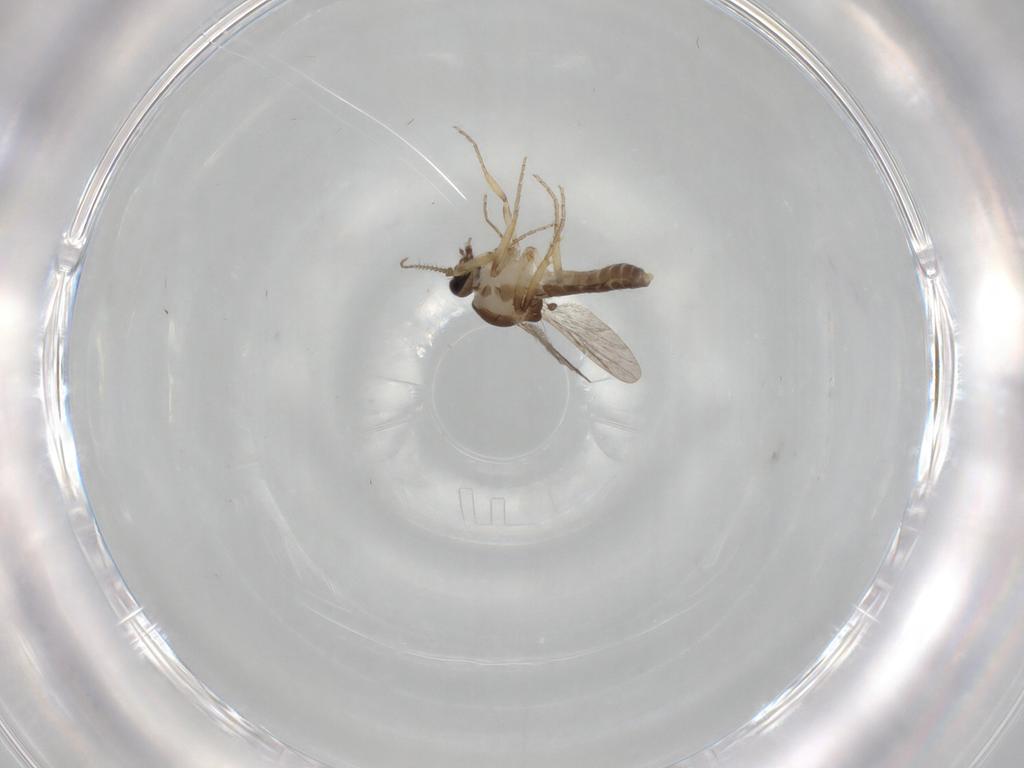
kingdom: Animalia
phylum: Arthropoda
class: Insecta
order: Diptera
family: Ceratopogonidae
